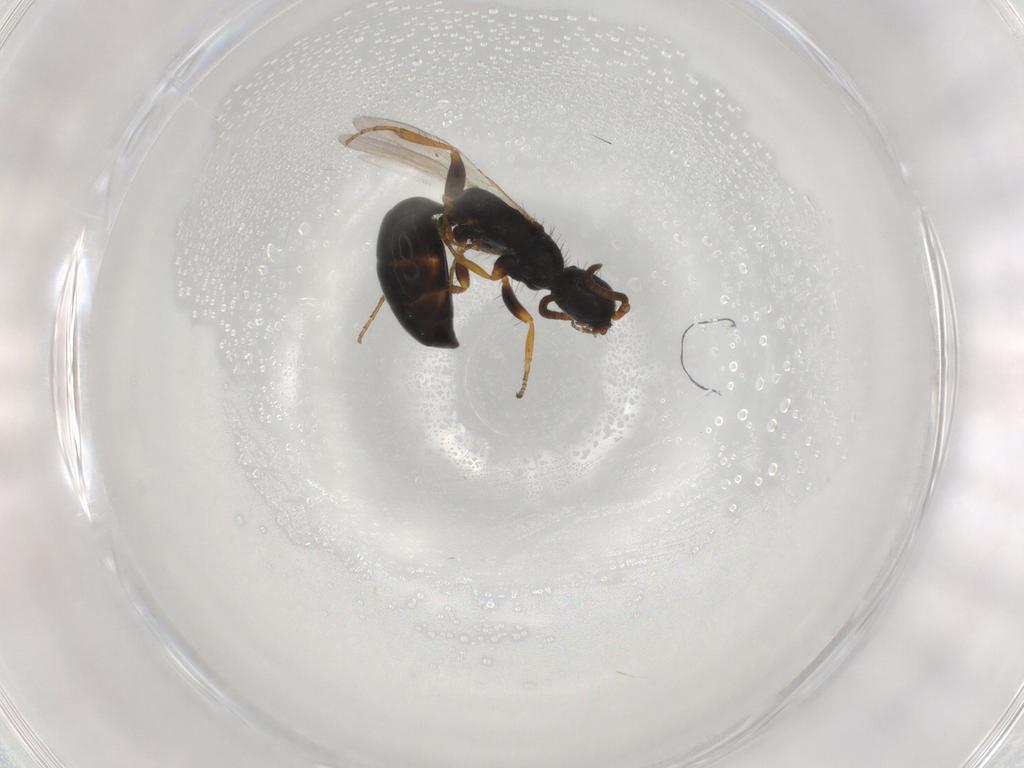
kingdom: Animalia
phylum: Arthropoda
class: Insecta
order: Hymenoptera
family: Bethylidae
